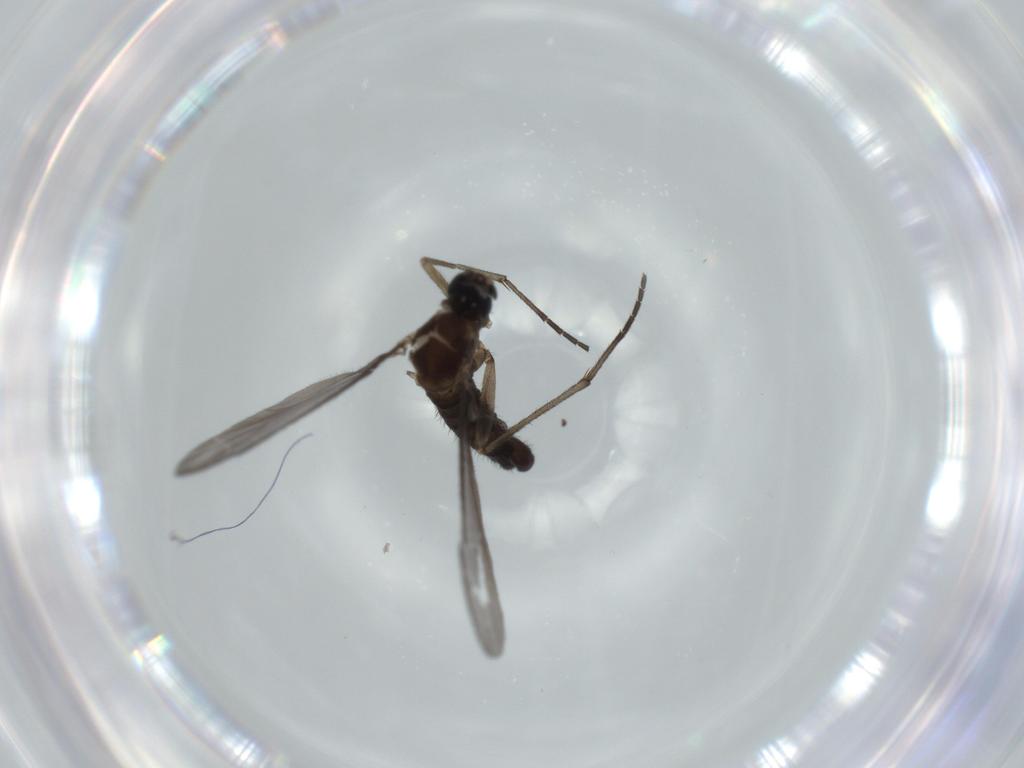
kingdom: Animalia
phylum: Arthropoda
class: Insecta
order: Diptera
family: Sciaridae
